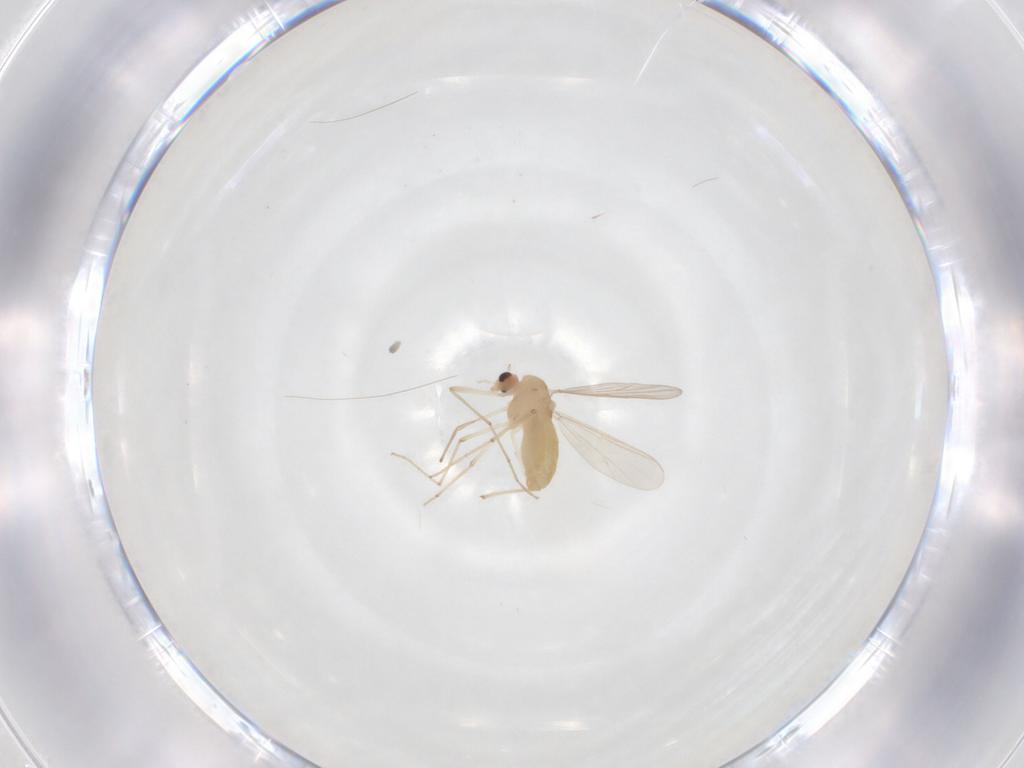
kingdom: Animalia
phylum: Arthropoda
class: Insecta
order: Diptera
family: Chironomidae
